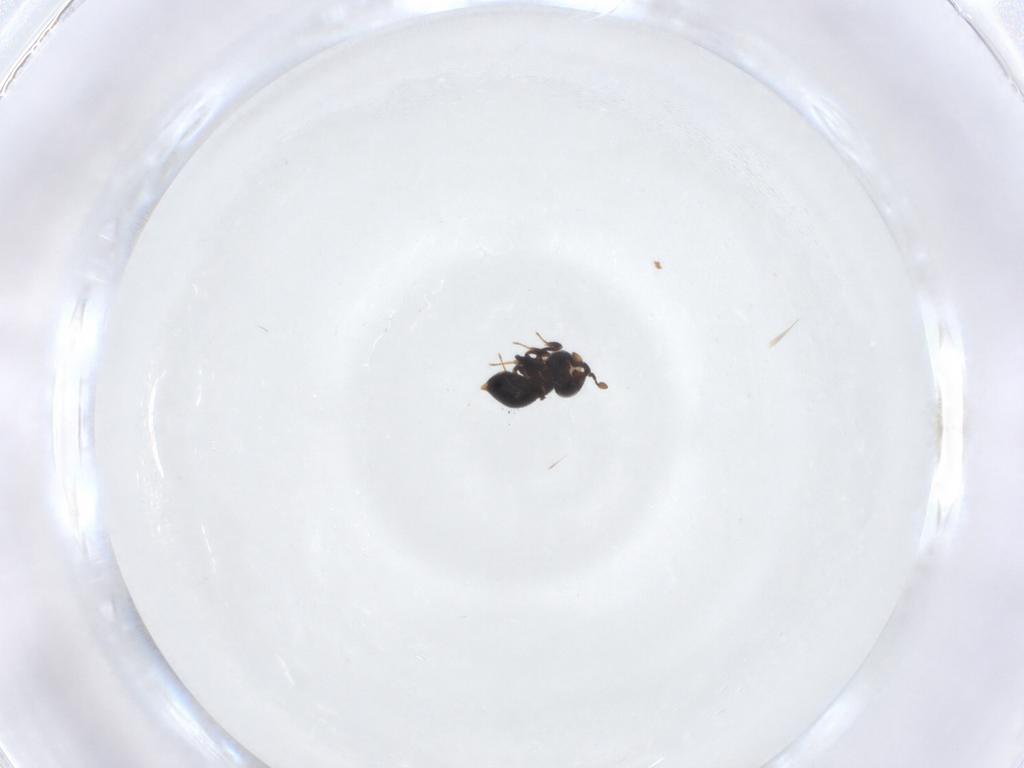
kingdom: Animalia
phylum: Arthropoda
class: Insecta
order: Hymenoptera
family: Scelionidae
